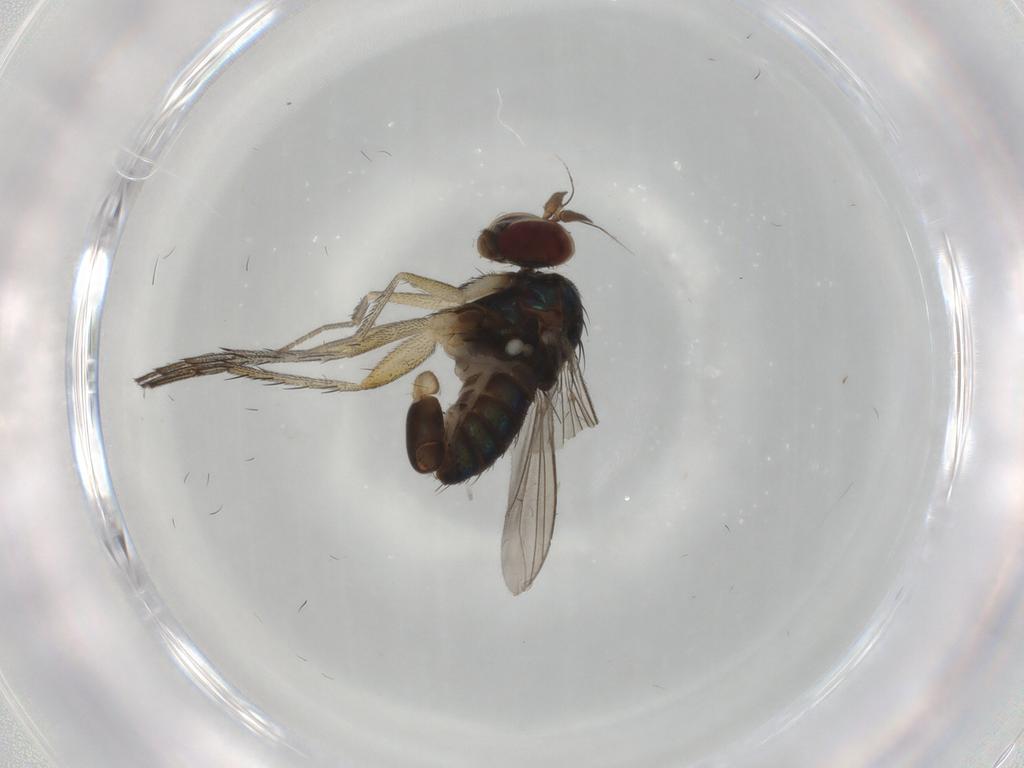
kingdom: Animalia
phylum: Arthropoda
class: Insecta
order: Diptera
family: Dolichopodidae
